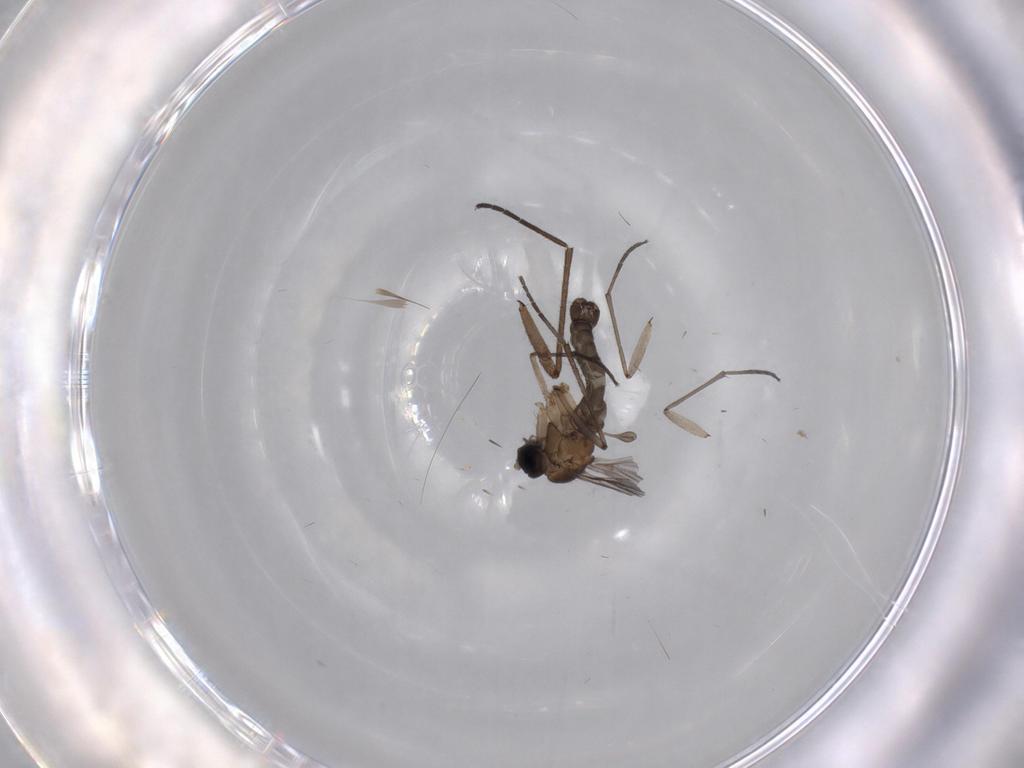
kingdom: Animalia
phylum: Arthropoda
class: Insecta
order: Diptera
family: Sciaridae
